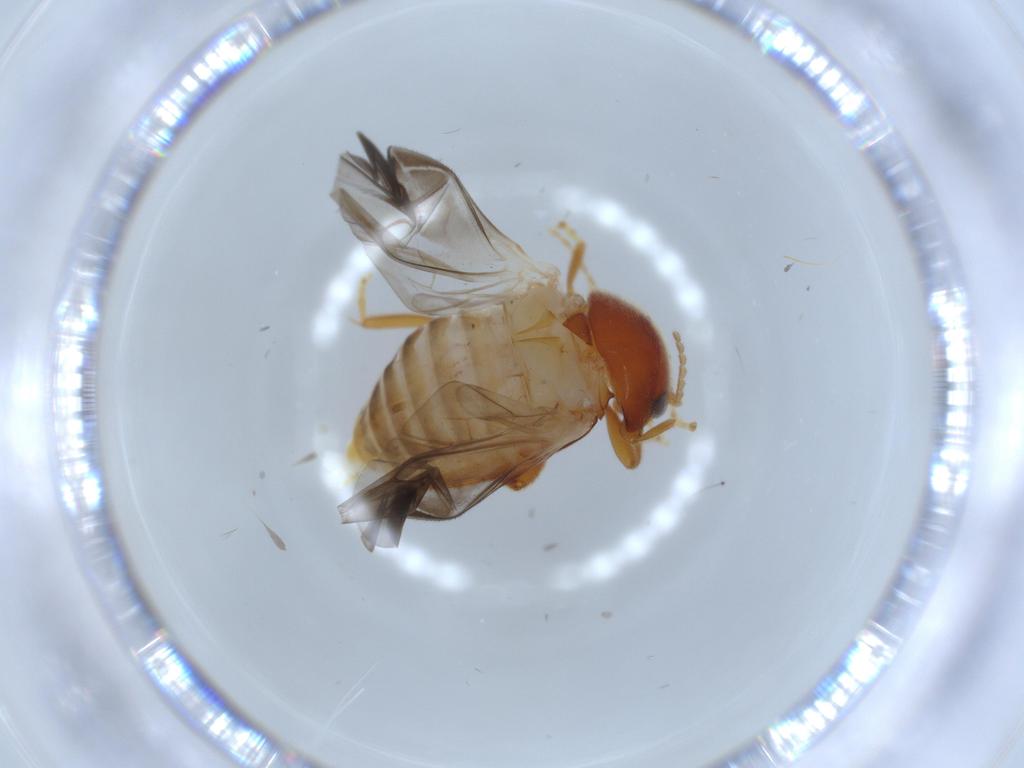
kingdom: Animalia
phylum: Arthropoda
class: Insecta
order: Coleoptera
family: Scirtidae
